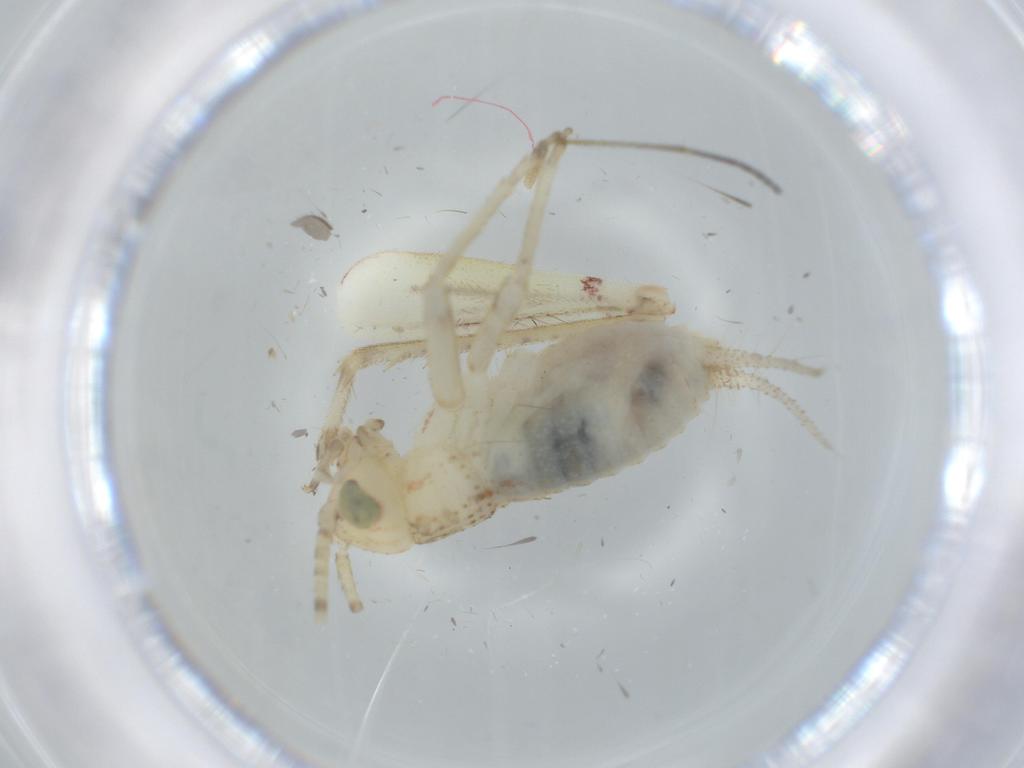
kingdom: Animalia
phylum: Arthropoda
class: Insecta
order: Orthoptera
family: Trigonidiidae
